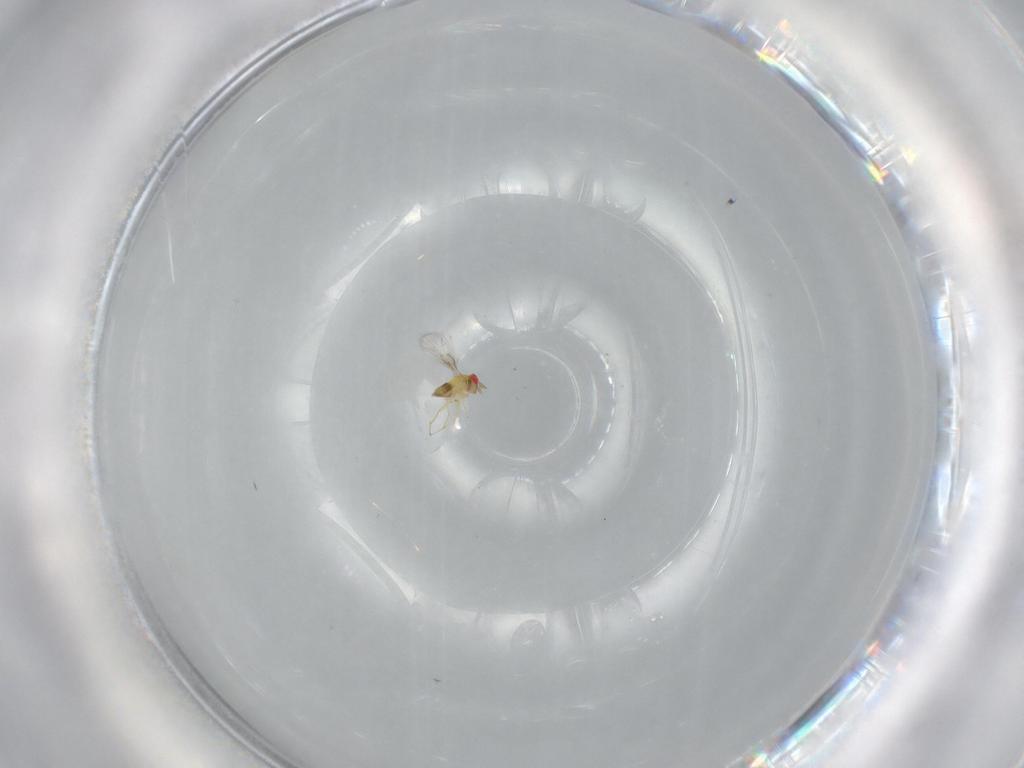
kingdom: Animalia
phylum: Arthropoda
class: Insecta
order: Hymenoptera
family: Trichogrammatidae
